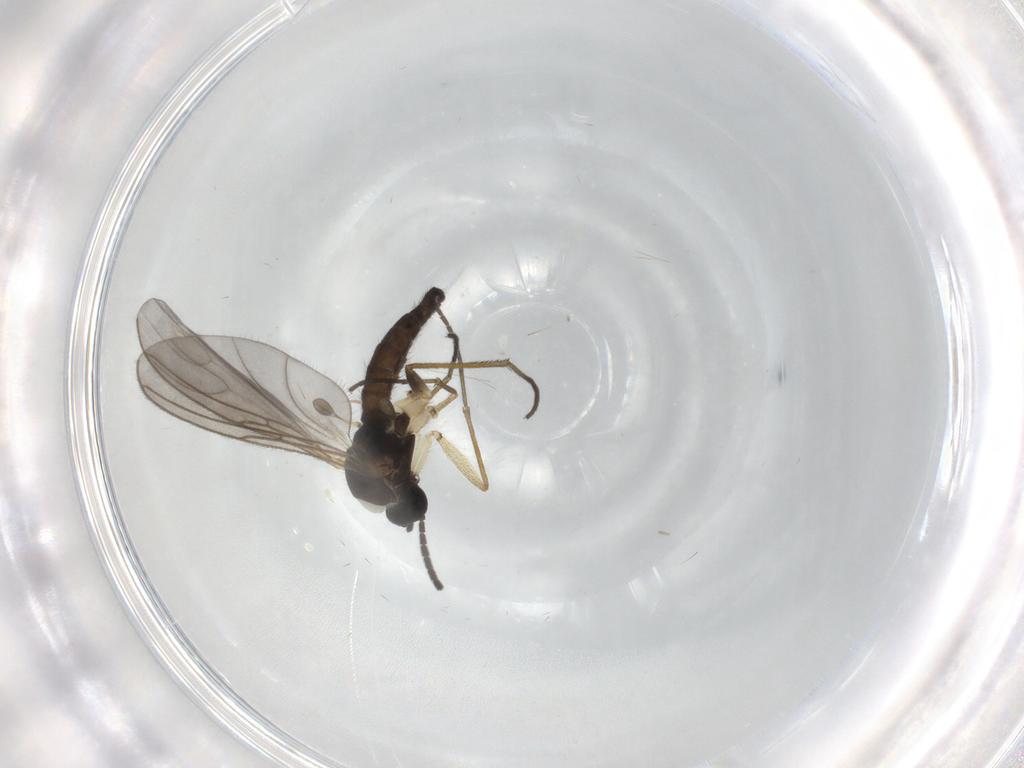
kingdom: Animalia
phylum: Arthropoda
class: Insecta
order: Diptera
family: Sciaridae
